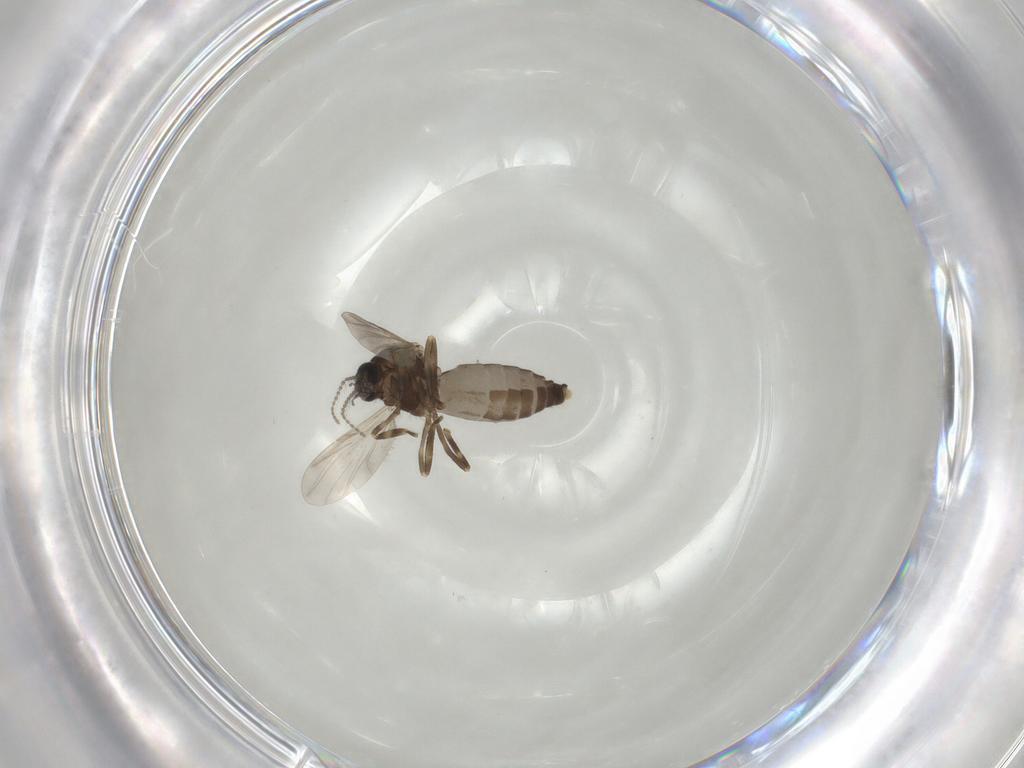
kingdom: Animalia
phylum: Arthropoda
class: Insecta
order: Diptera
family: Ceratopogonidae
